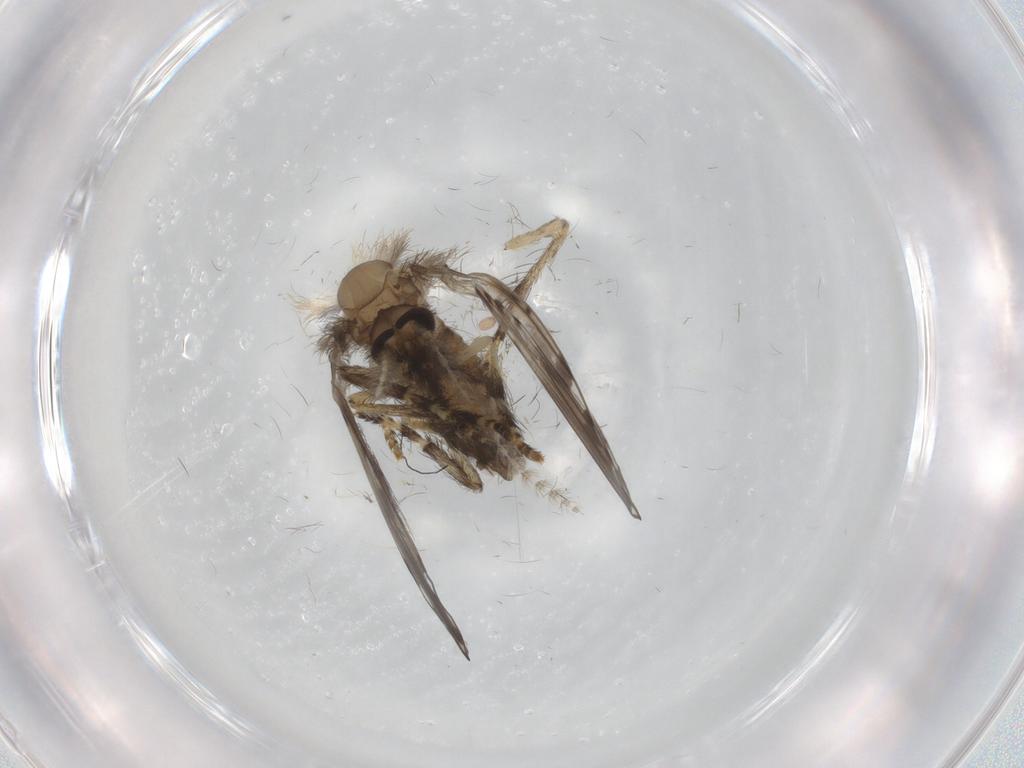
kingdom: Animalia
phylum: Arthropoda
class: Insecta
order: Diptera
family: Psychodidae
